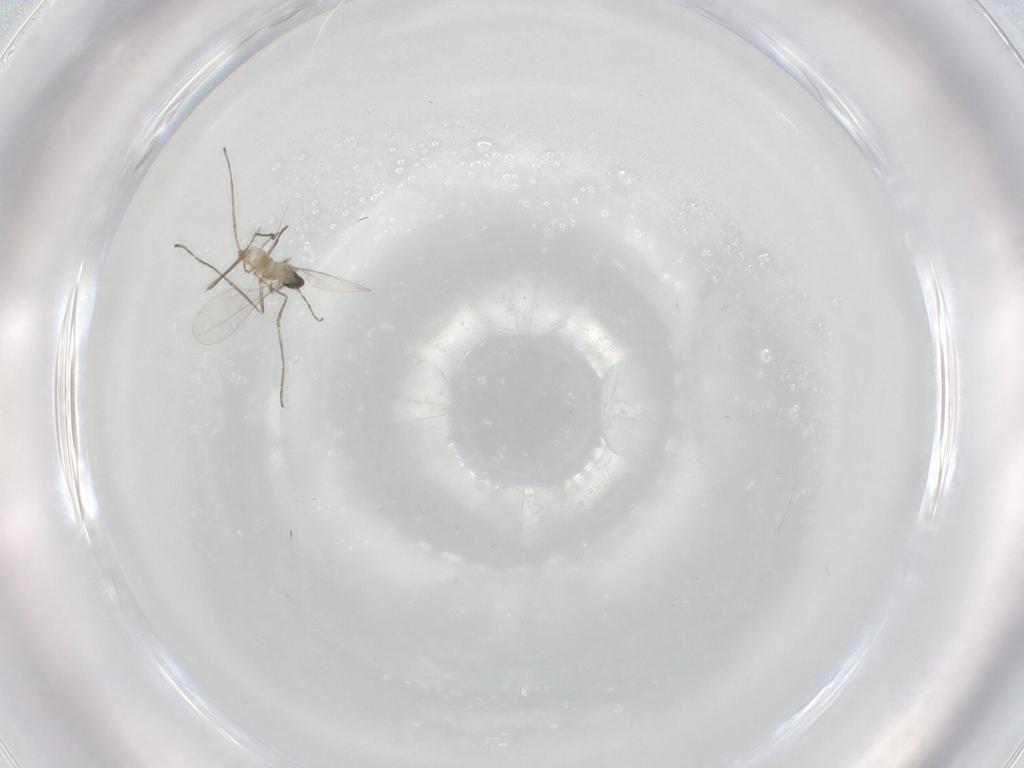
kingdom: Animalia
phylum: Arthropoda
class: Insecta
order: Diptera
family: Cecidomyiidae
